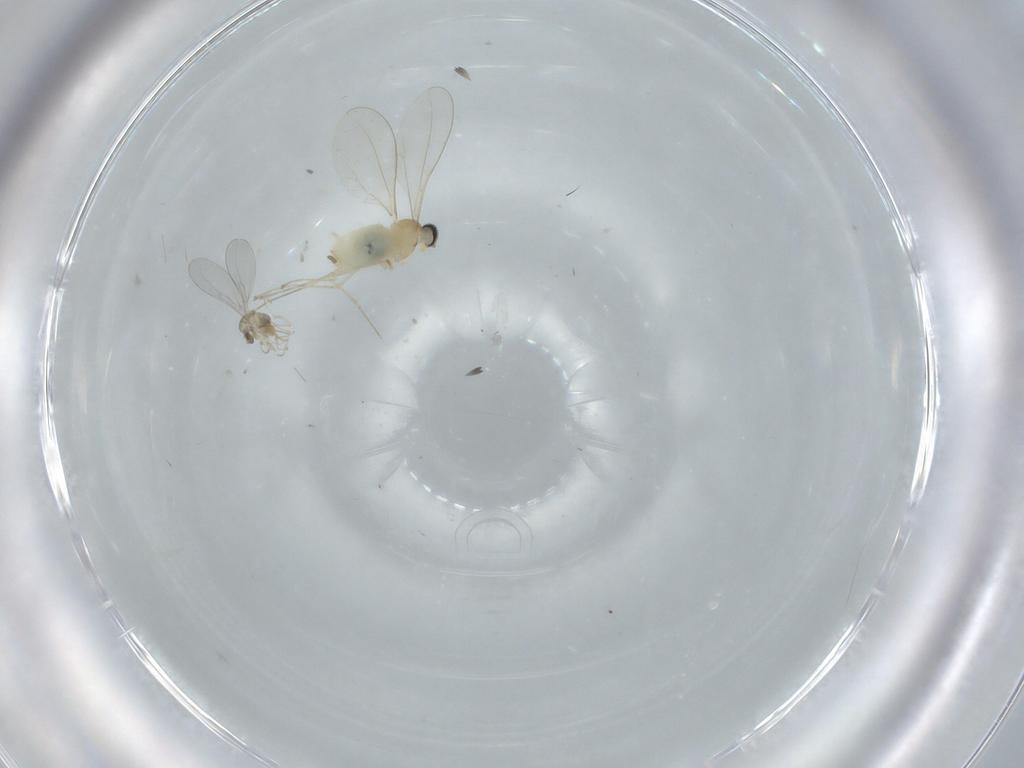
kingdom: Animalia
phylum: Arthropoda
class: Insecta
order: Diptera
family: Cecidomyiidae
